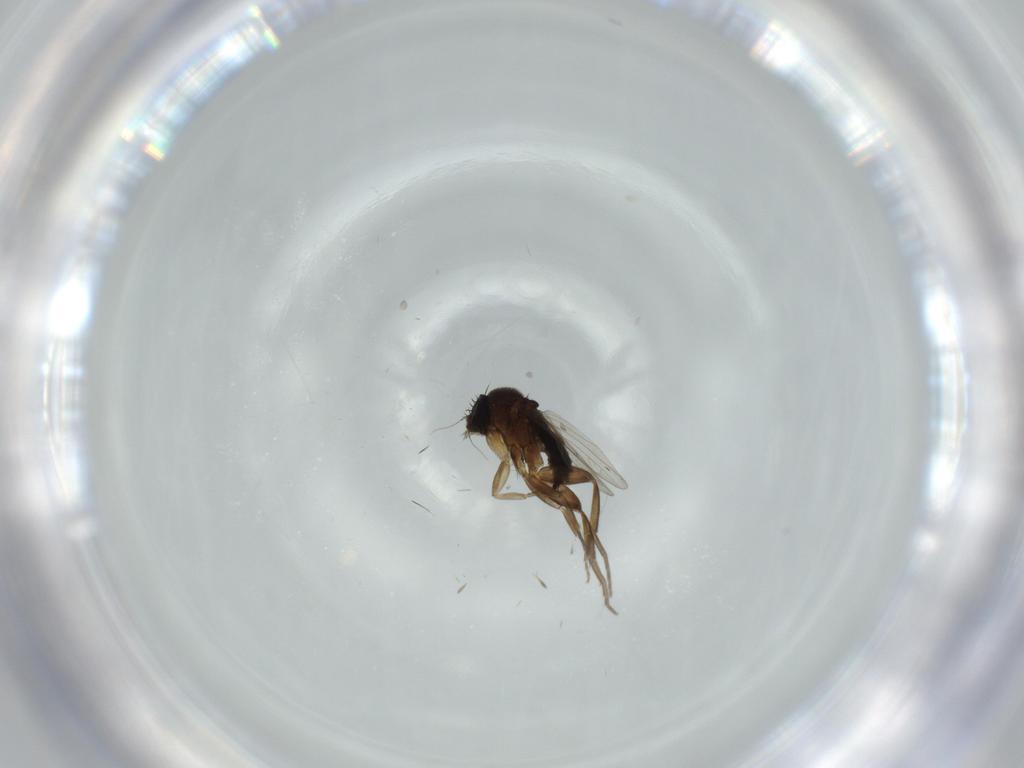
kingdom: Animalia
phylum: Arthropoda
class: Insecta
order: Diptera
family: Phoridae
